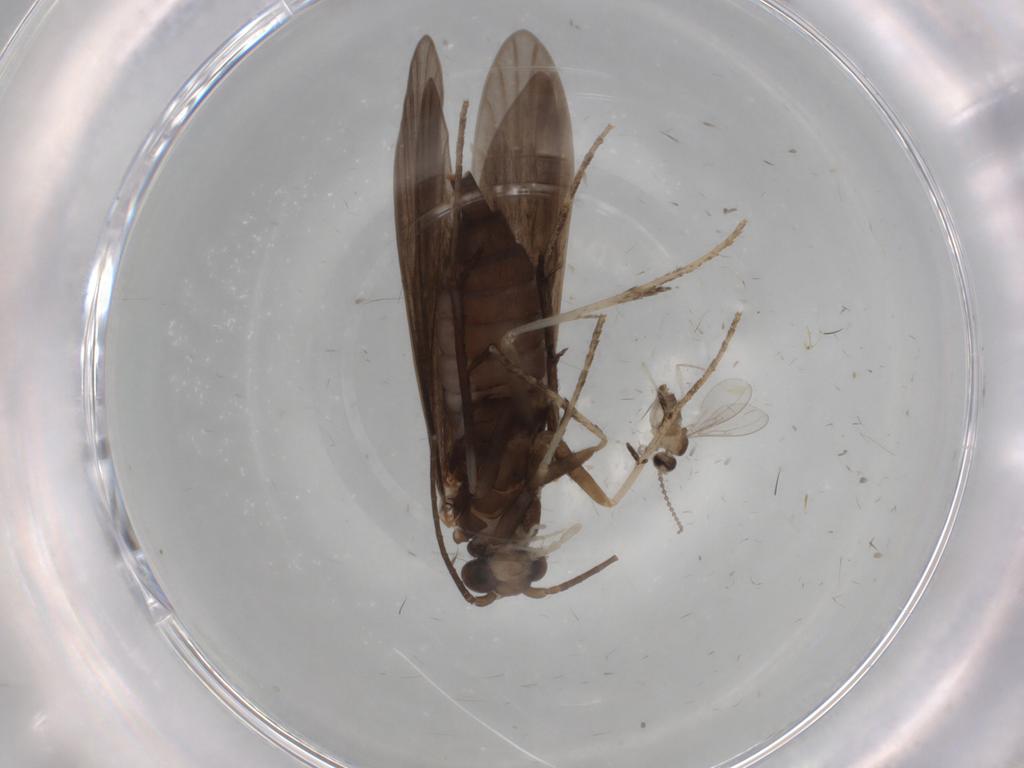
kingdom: Animalia
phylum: Arthropoda
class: Insecta
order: Trichoptera
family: Xiphocentronidae
